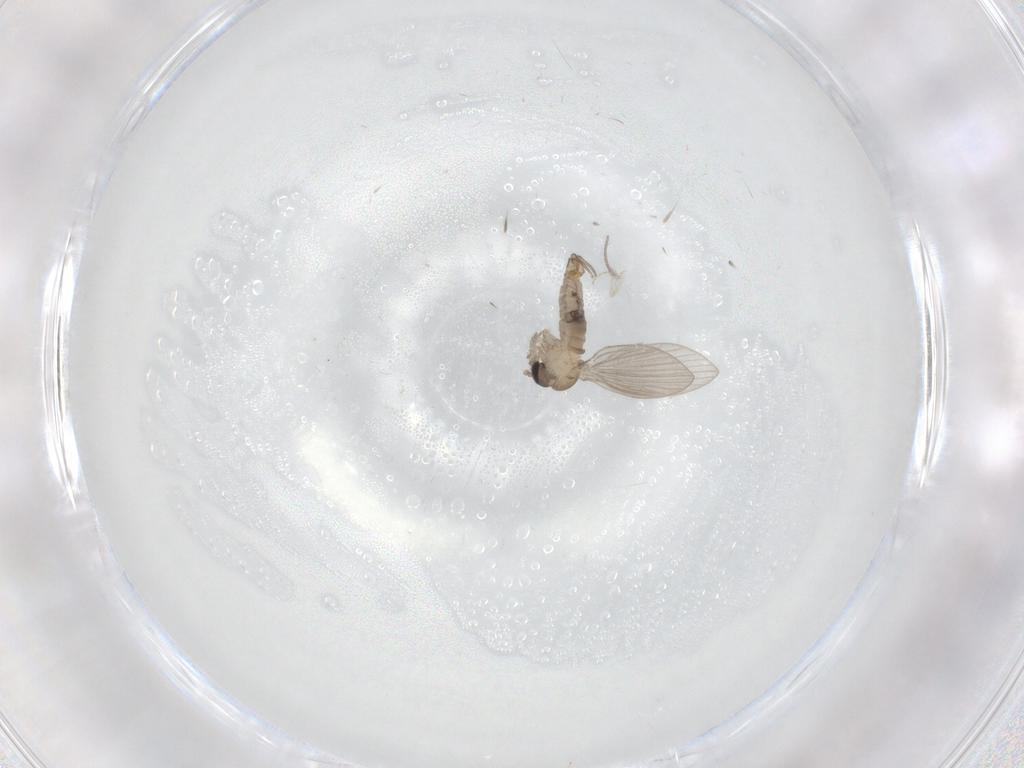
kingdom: Animalia
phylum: Arthropoda
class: Insecta
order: Diptera
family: Psychodidae
